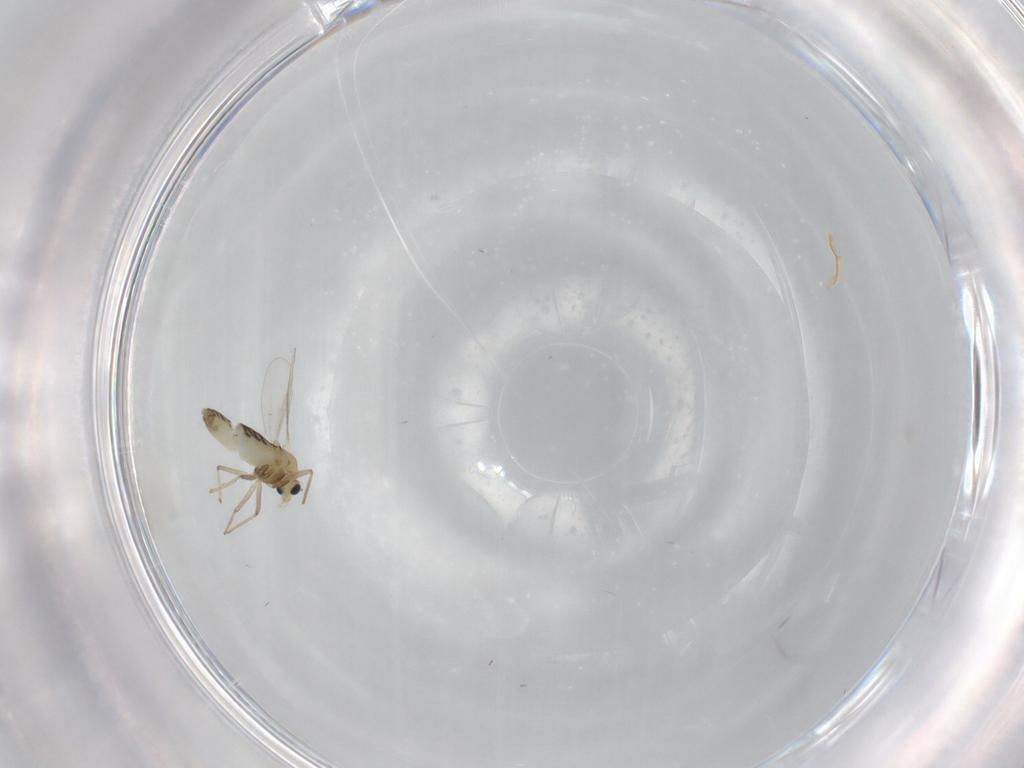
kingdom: Animalia
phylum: Arthropoda
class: Insecta
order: Diptera
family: Chironomidae
